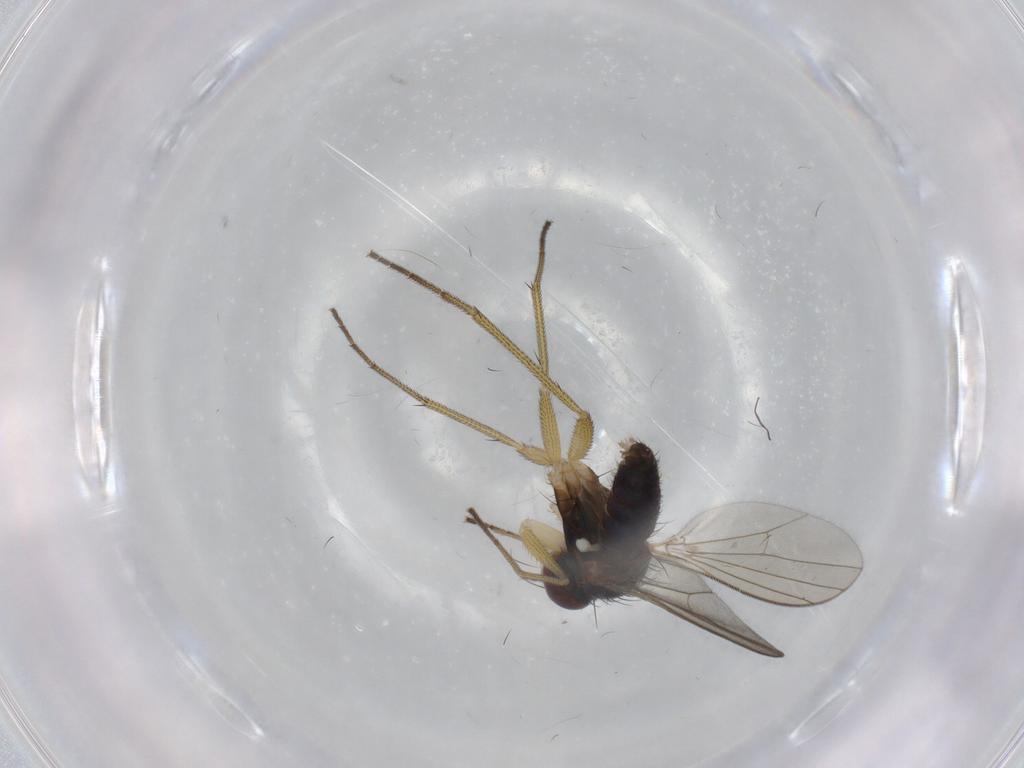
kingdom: Animalia
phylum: Arthropoda
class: Insecta
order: Diptera
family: Dolichopodidae
